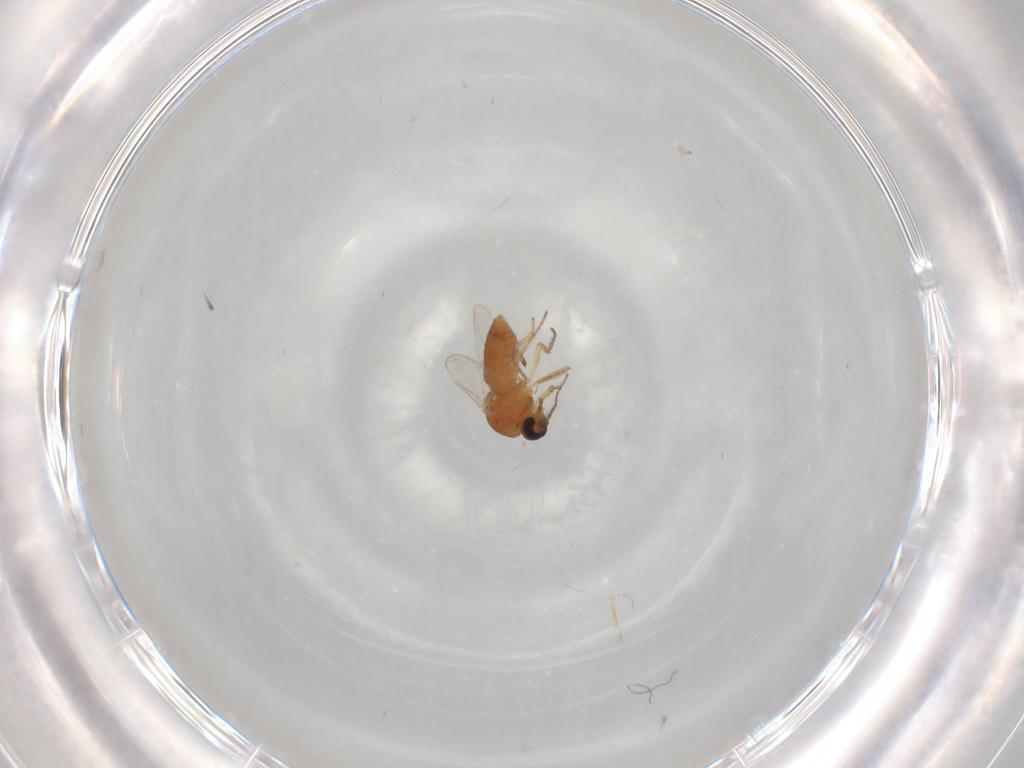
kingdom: Animalia
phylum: Arthropoda
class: Insecta
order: Diptera
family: Ceratopogonidae
